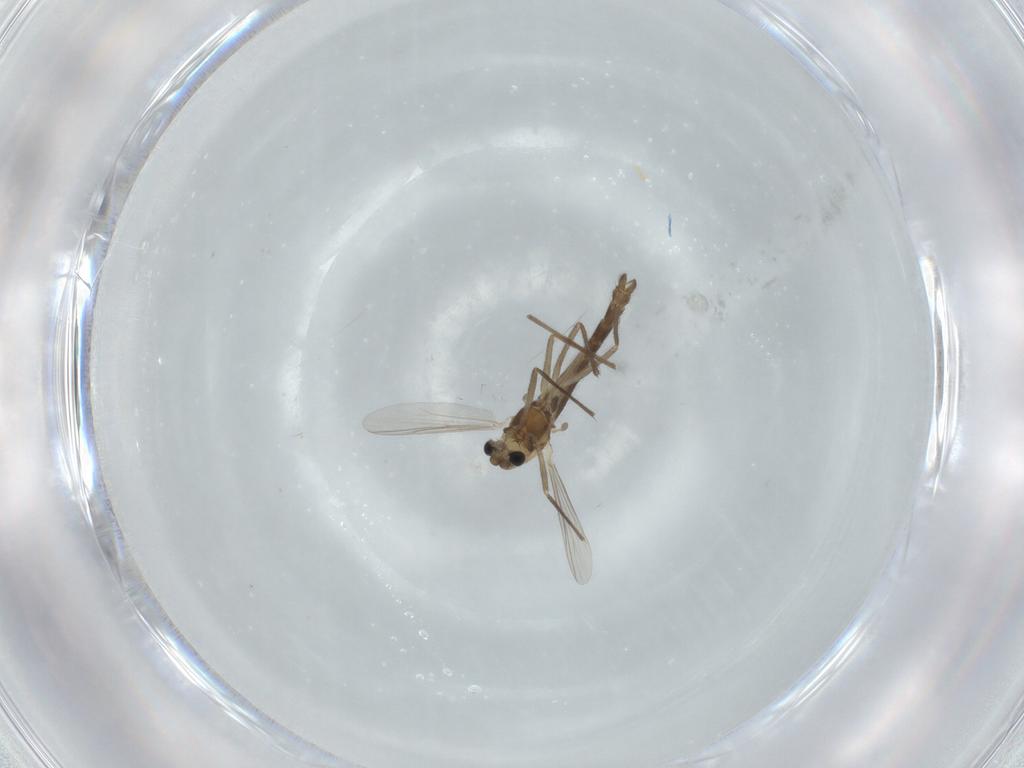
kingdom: Animalia
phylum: Arthropoda
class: Insecta
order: Diptera
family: Chironomidae
